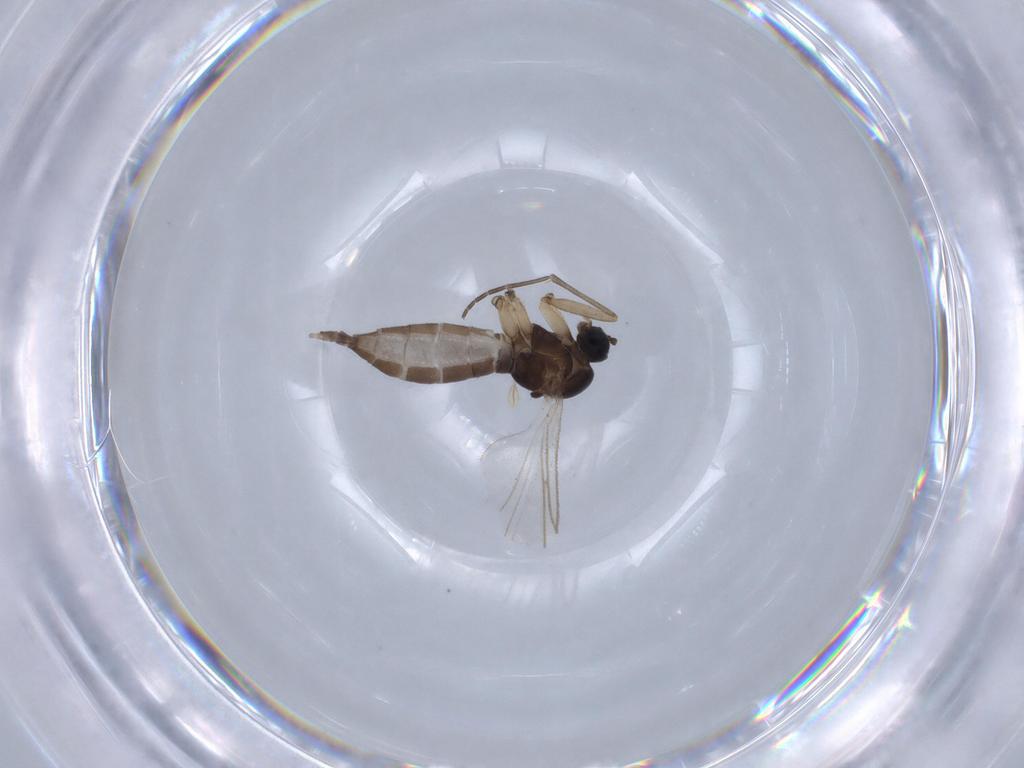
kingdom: Animalia
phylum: Arthropoda
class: Insecta
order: Diptera
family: Sciaridae
